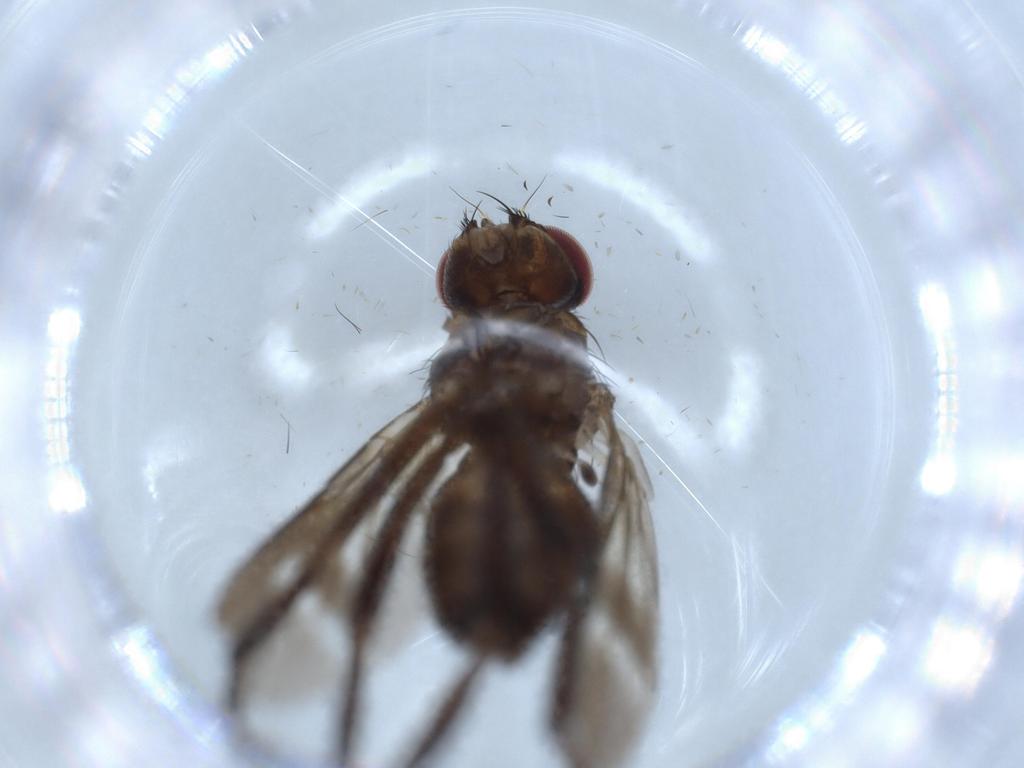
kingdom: Animalia
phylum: Arthropoda
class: Insecta
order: Diptera
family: Calliphoridae
